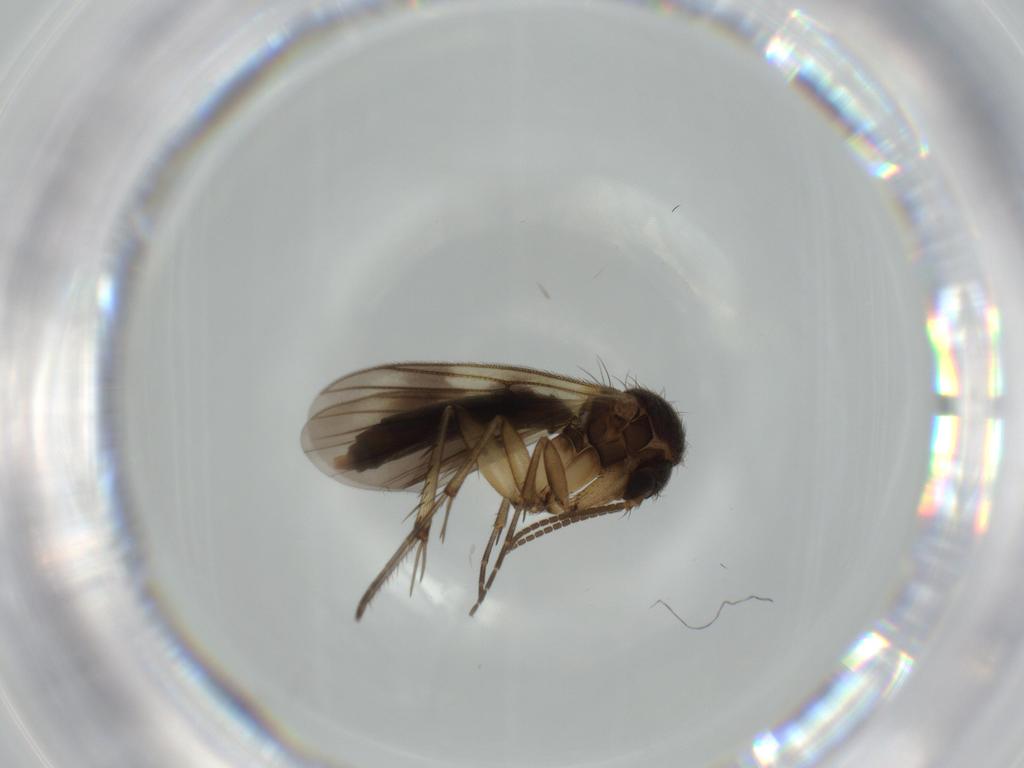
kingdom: Animalia
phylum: Arthropoda
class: Insecta
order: Diptera
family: Mycetophilidae
